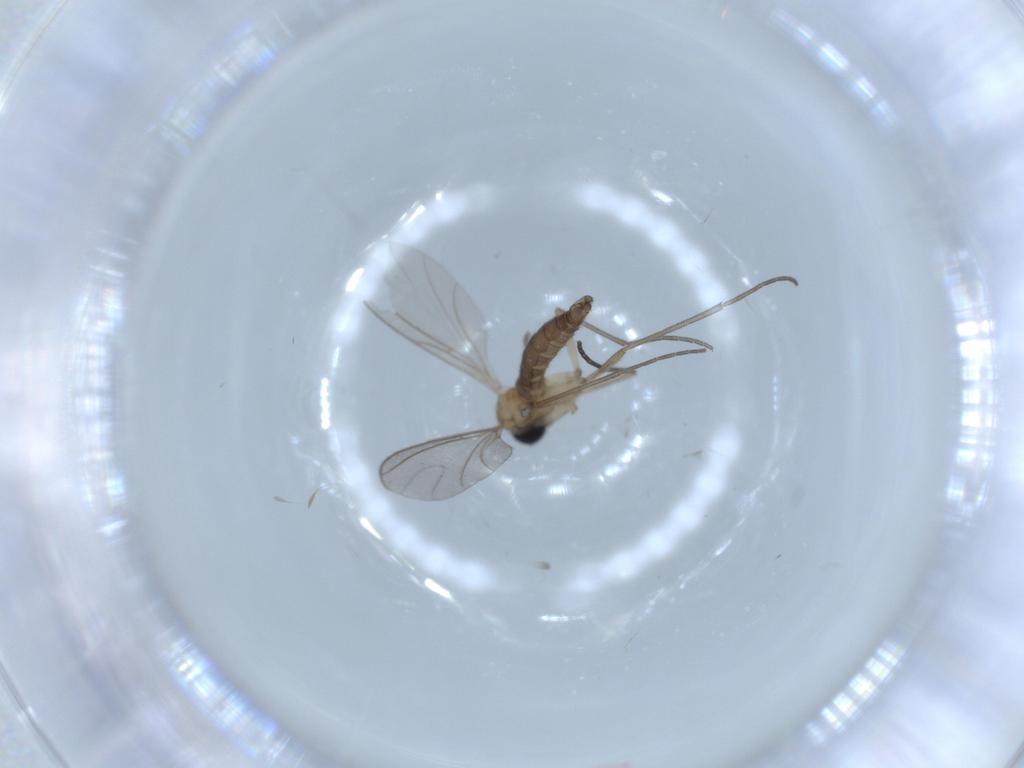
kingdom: Animalia
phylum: Arthropoda
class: Insecta
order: Diptera
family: Sciaridae
